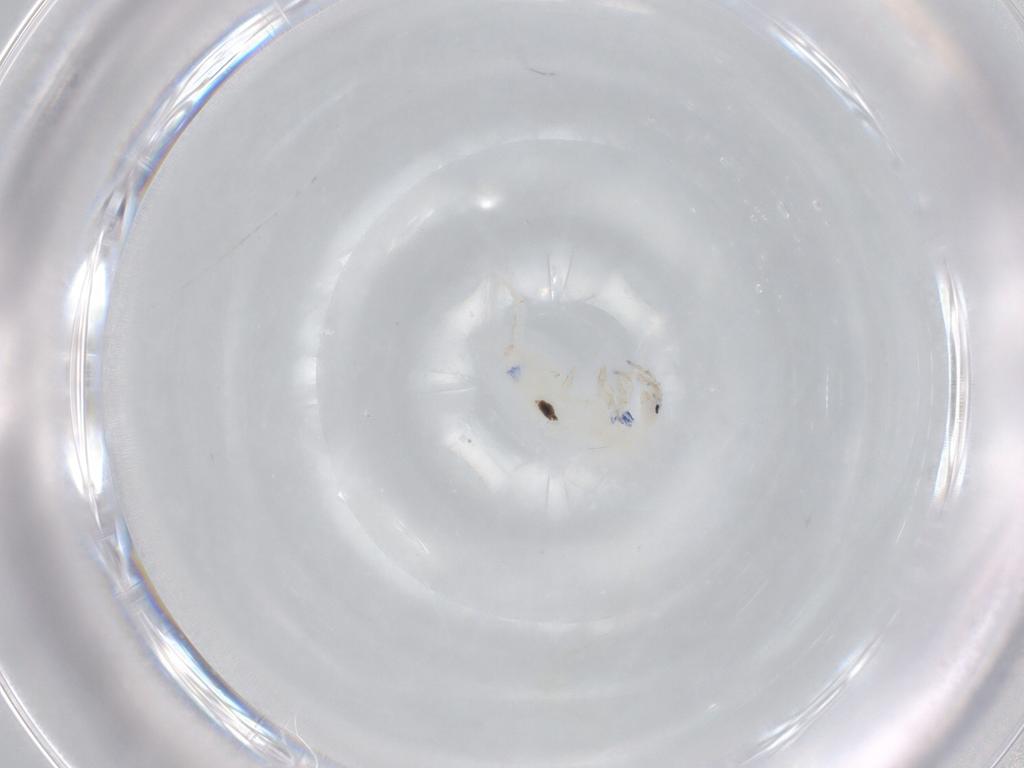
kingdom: Animalia
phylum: Arthropoda
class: Collembola
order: Entomobryomorpha
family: Entomobryidae
